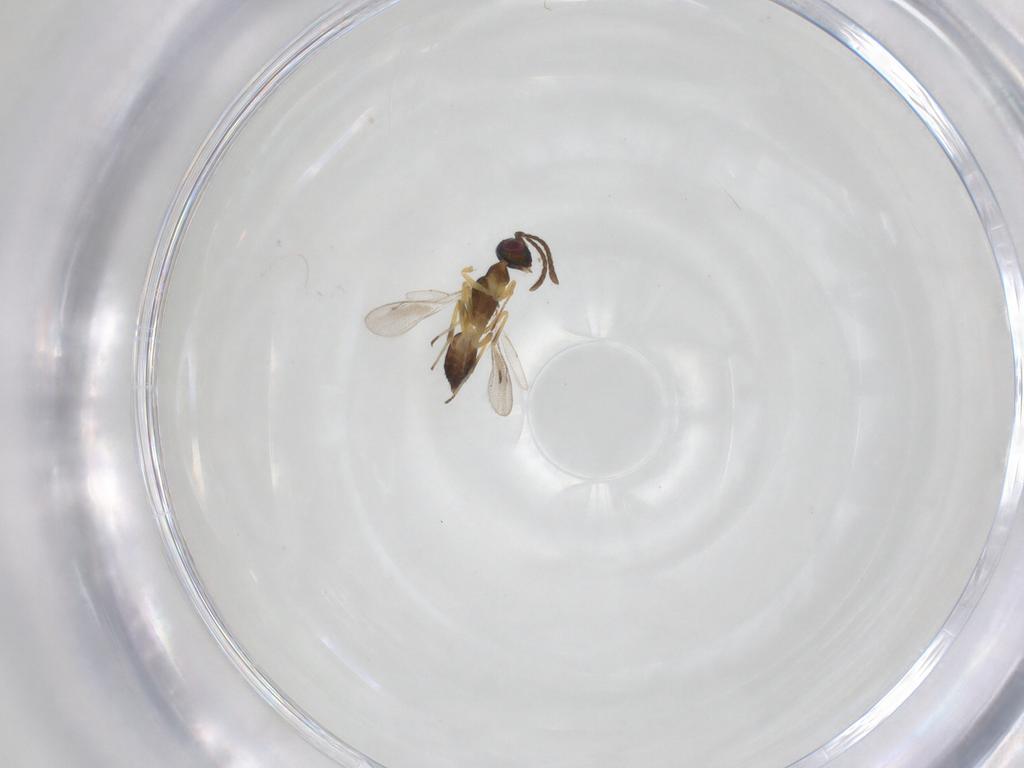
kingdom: Animalia
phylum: Arthropoda
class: Insecta
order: Hymenoptera
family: Eupelmidae
